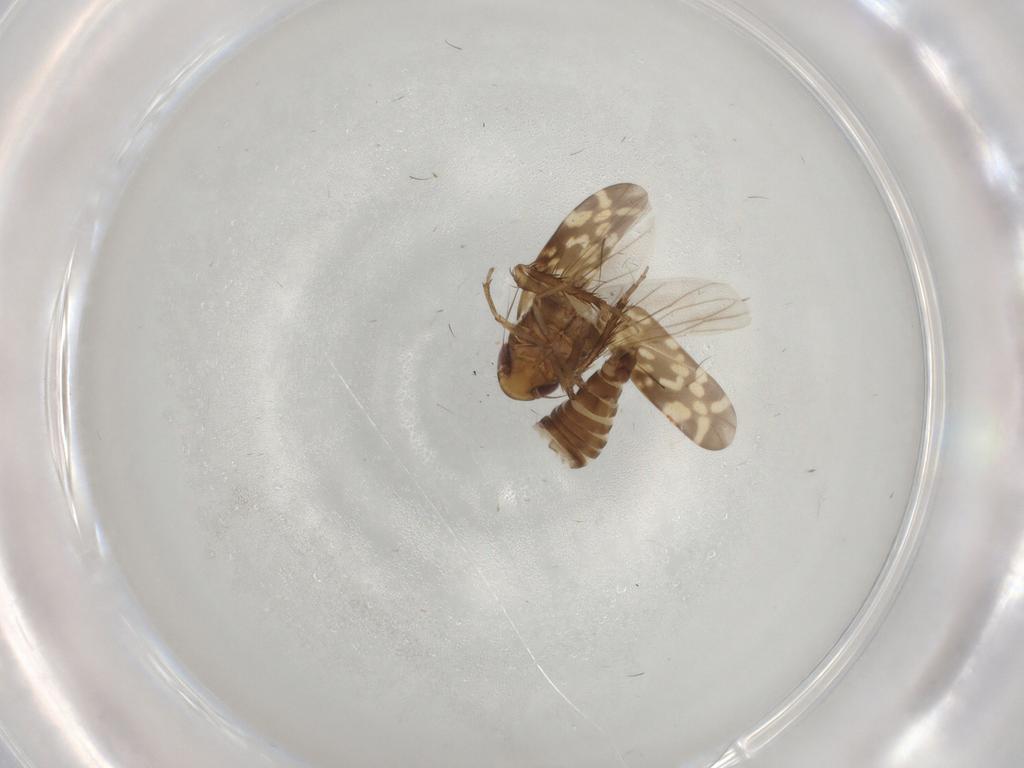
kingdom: Animalia
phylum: Arthropoda
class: Insecta
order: Hemiptera
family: Cicadellidae
